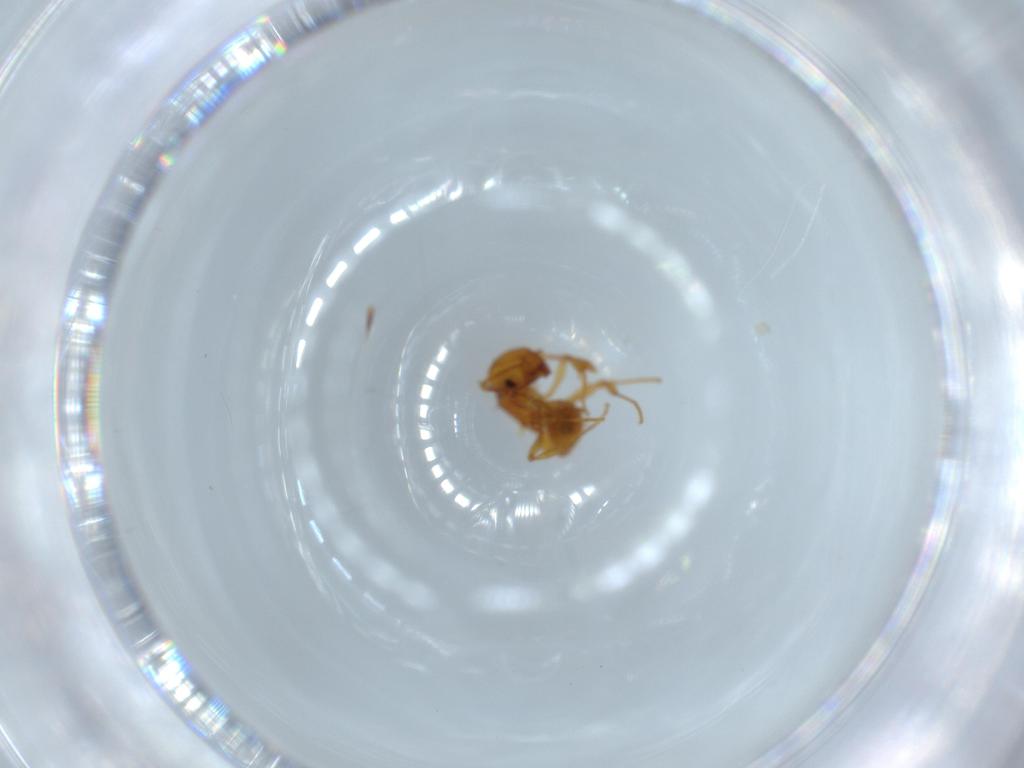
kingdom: Animalia
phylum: Arthropoda
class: Insecta
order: Hymenoptera
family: Formicidae
